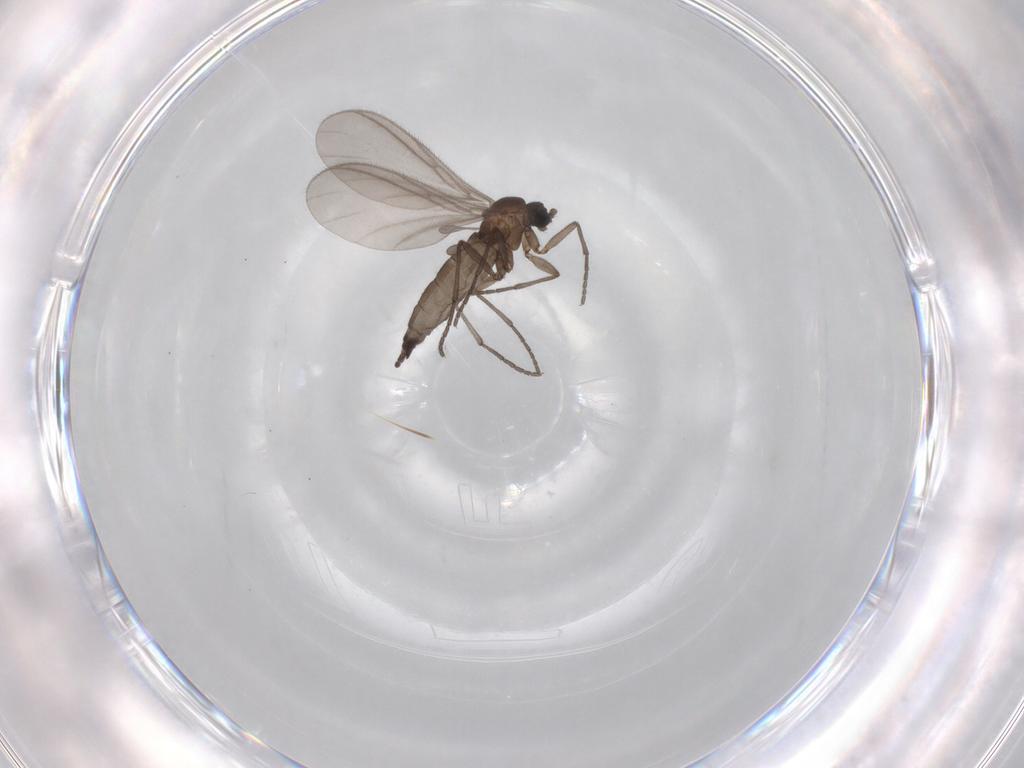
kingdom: Animalia
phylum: Arthropoda
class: Insecta
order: Diptera
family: Sciaridae
